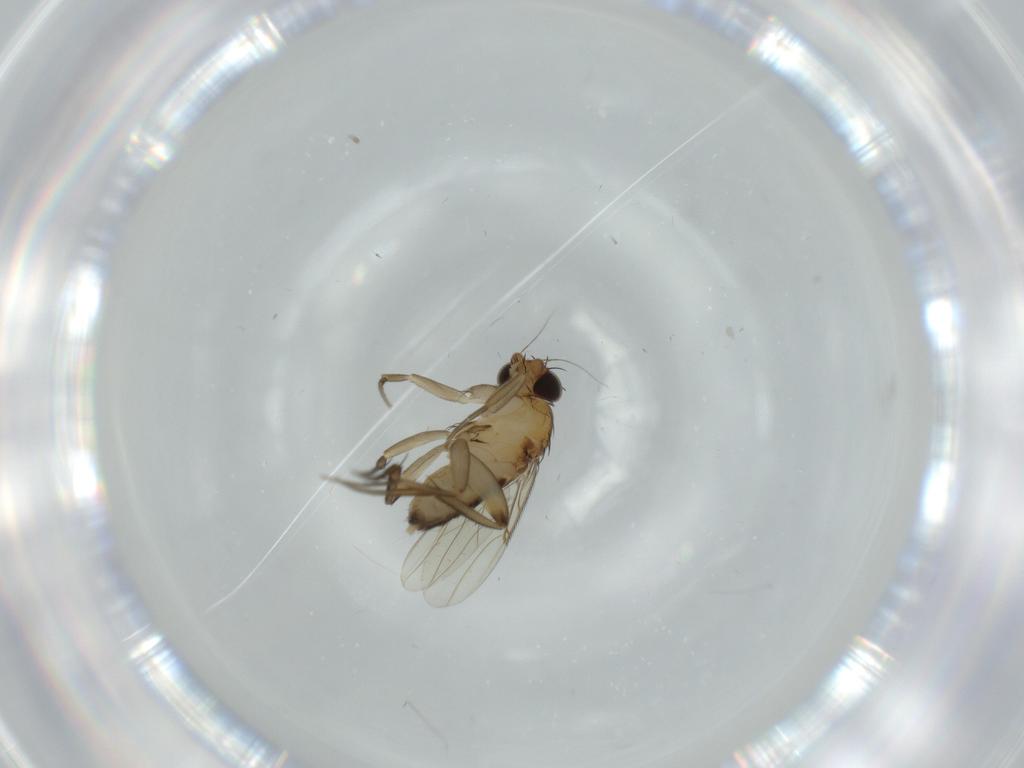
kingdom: Animalia
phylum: Arthropoda
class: Insecta
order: Diptera
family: Phoridae
